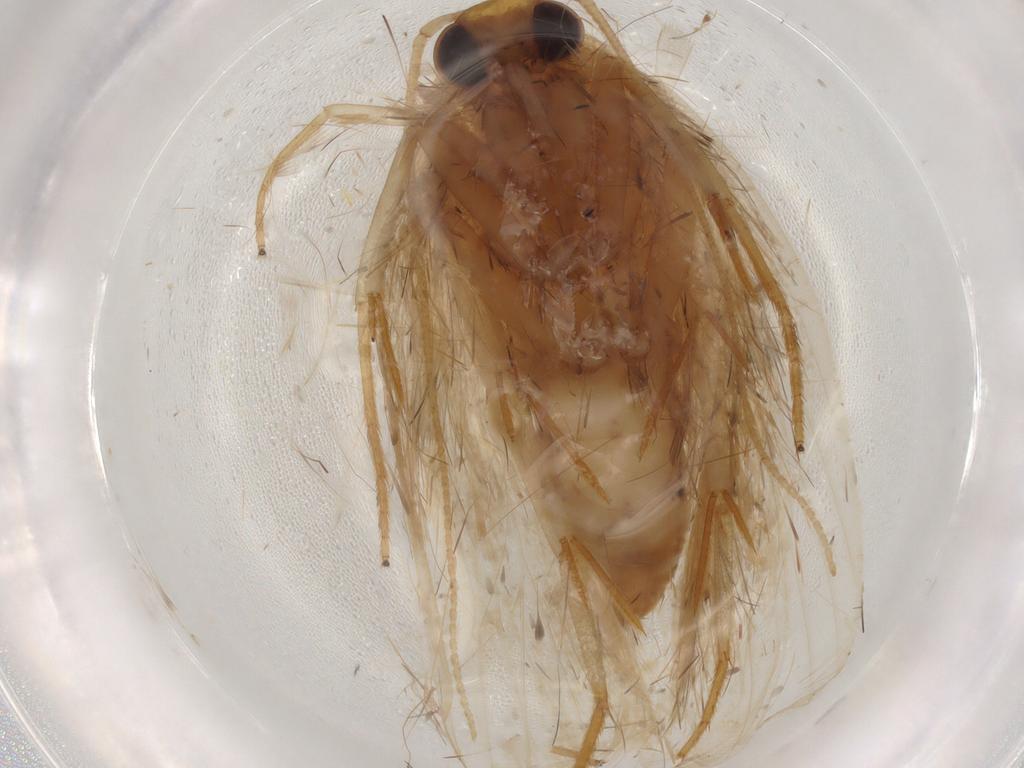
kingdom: Animalia
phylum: Arthropoda
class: Insecta
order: Lepidoptera
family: Depressariidae
